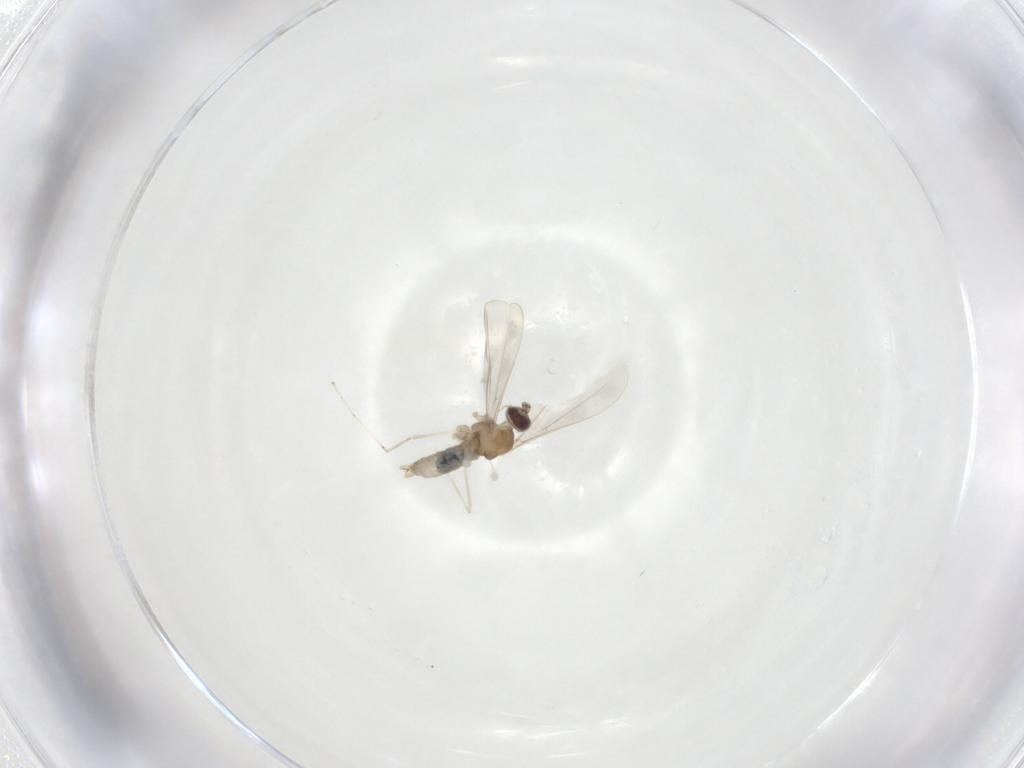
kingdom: Animalia
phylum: Arthropoda
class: Insecta
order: Diptera
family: Cecidomyiidae
